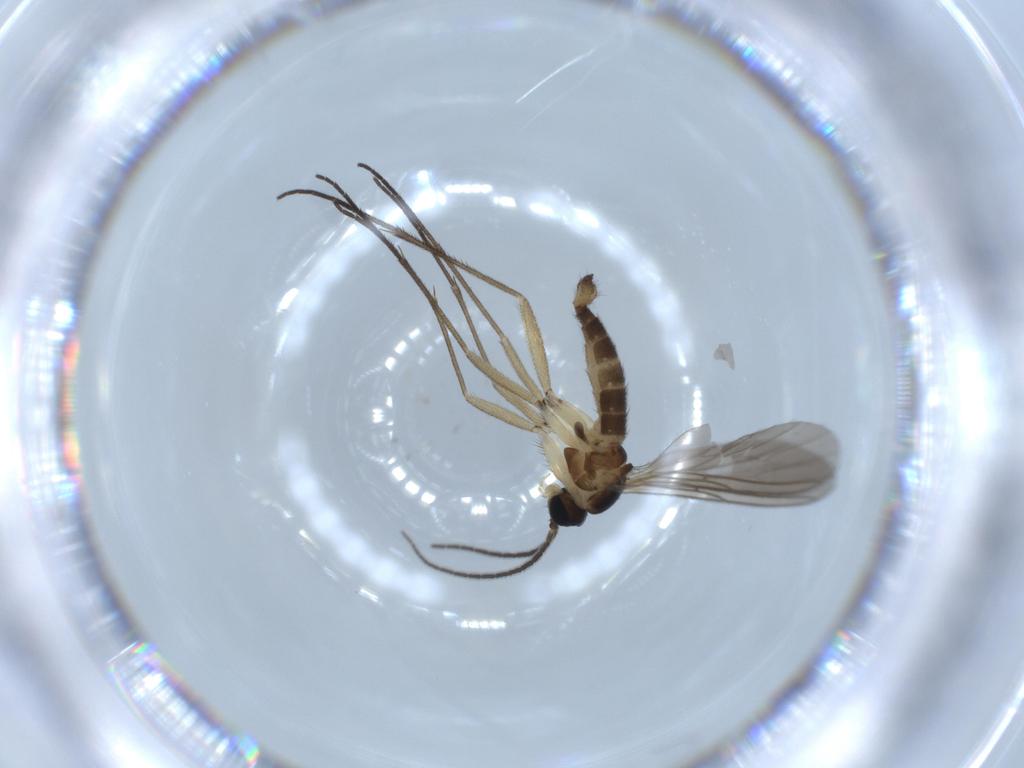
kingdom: Animalia
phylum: Arthropoda
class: Insecta
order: Diptera
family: Sciaridae
